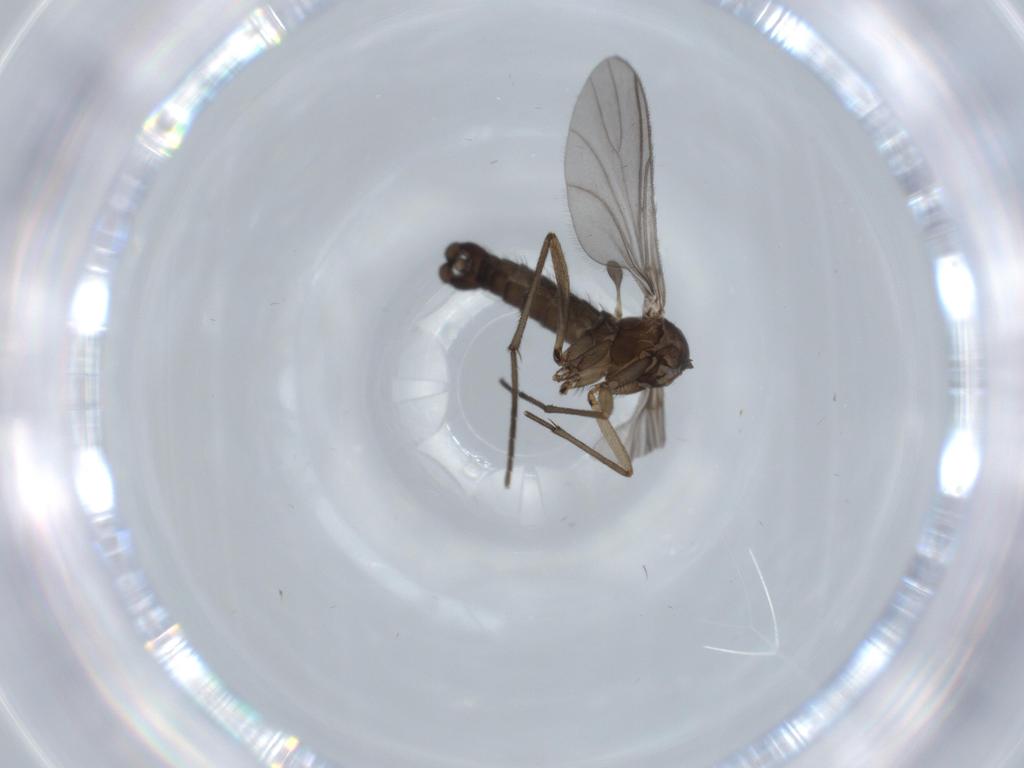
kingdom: Animalia
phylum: Arthropoda
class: Insecta
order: Diptera
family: Sciaridae
